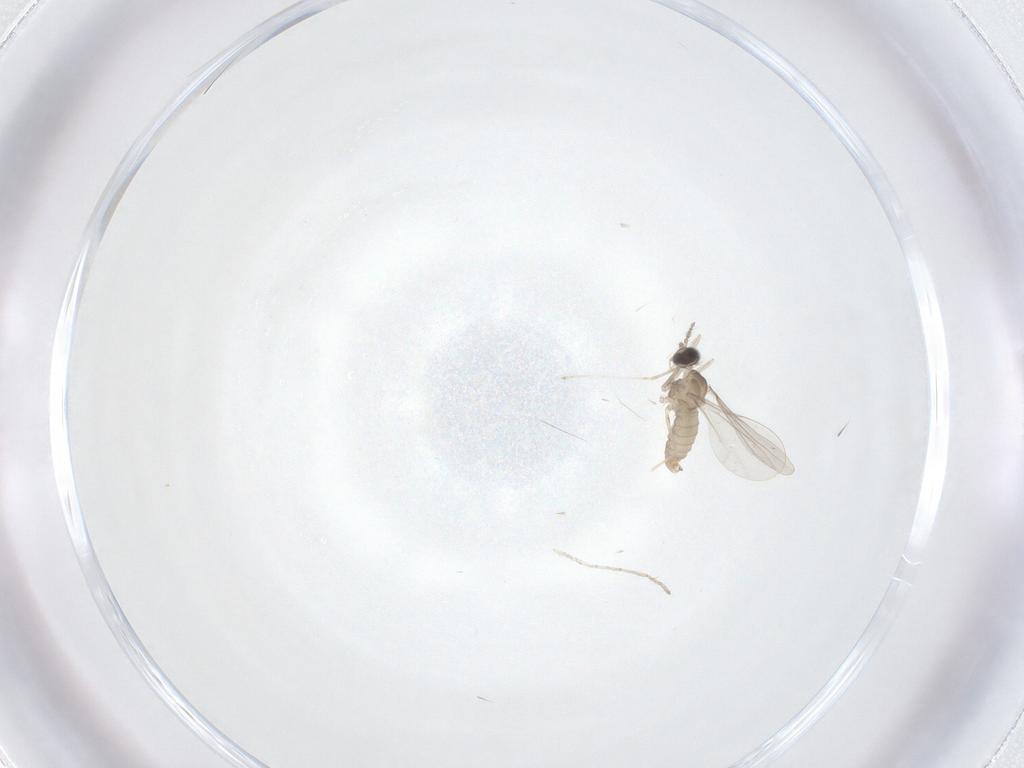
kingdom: Animalia
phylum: Arthropoda
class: Insecta
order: Diptera
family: Cecidomyiidae
